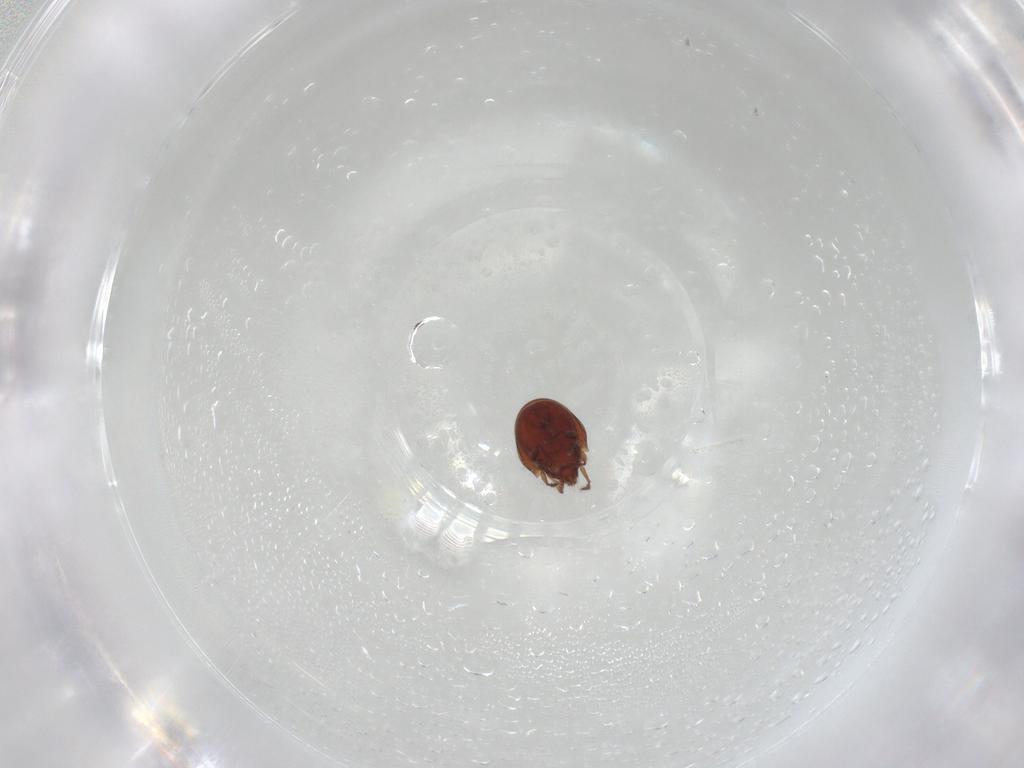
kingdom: Animalia
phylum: Arthropoda
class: Arachnida
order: Sarcoptiformes
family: Ceratozetidae
